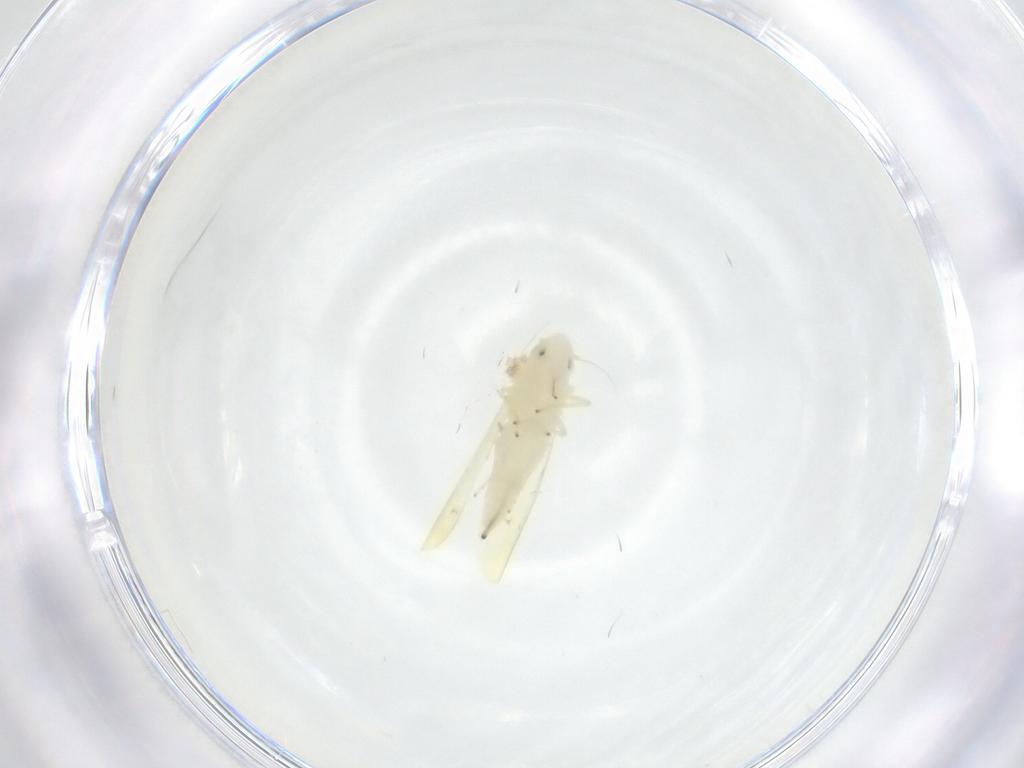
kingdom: Animalia
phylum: Arthropoda
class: Insecta
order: Hemiptera
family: Cicadellidae
